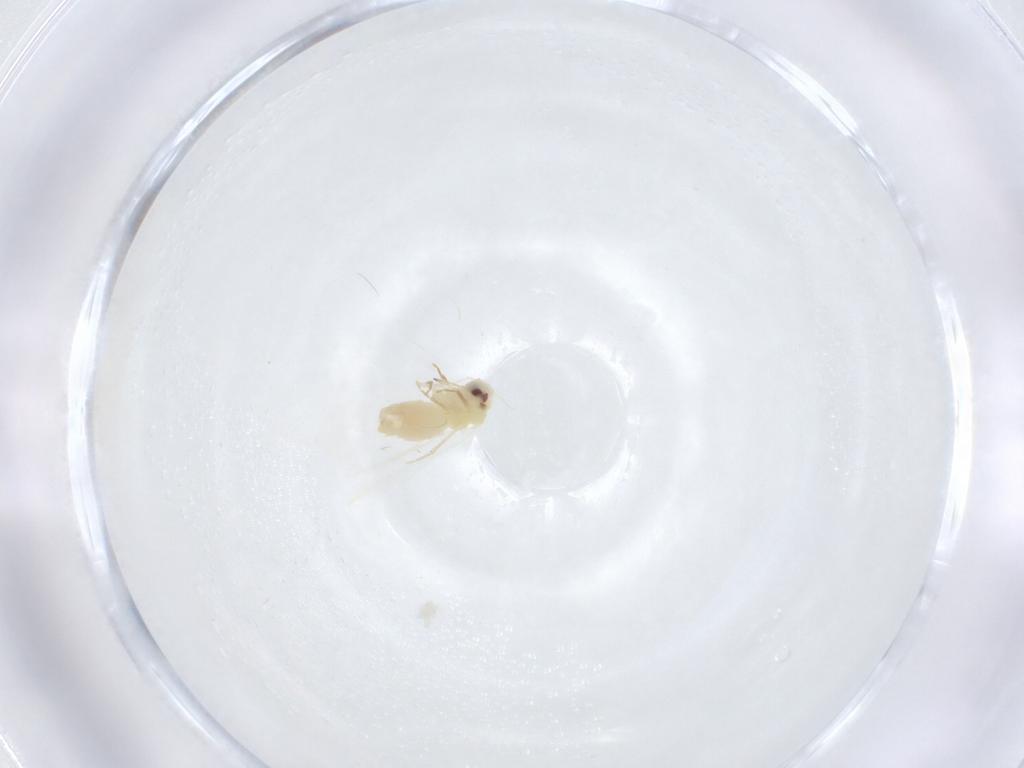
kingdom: Animalia
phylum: Arthropoda
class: Insecta
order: Hemiptera
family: Aleyrodidae
